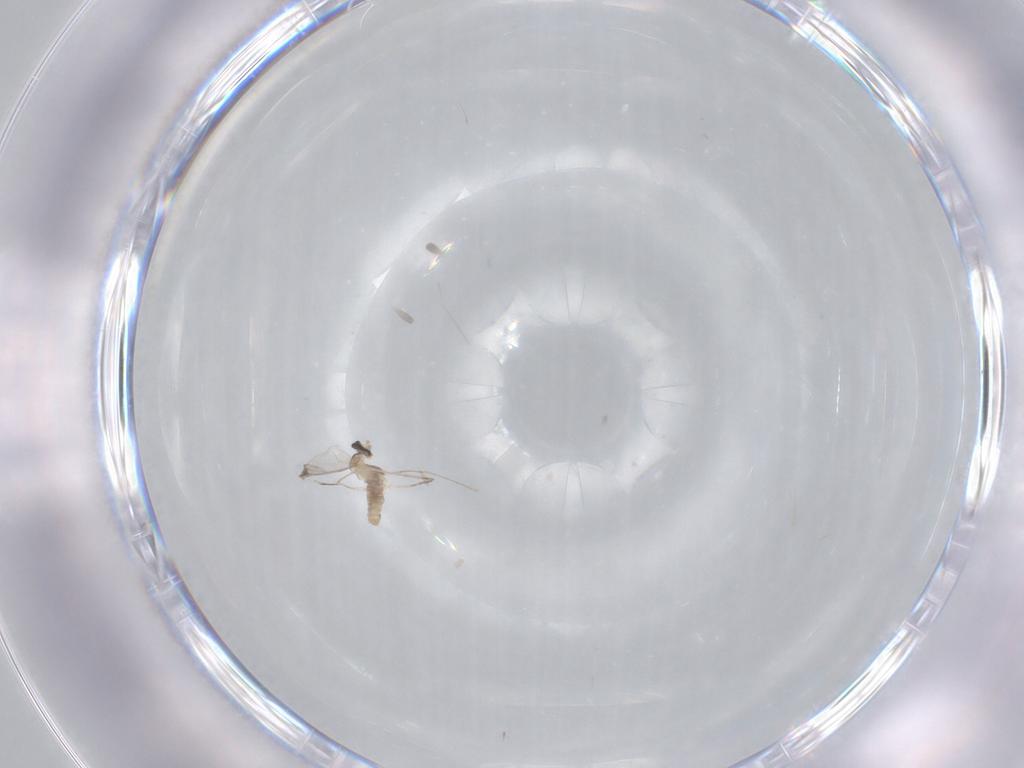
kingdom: Animalia
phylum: Arthropoda
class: Insecta
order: Diptera
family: Cecidomyiidae
